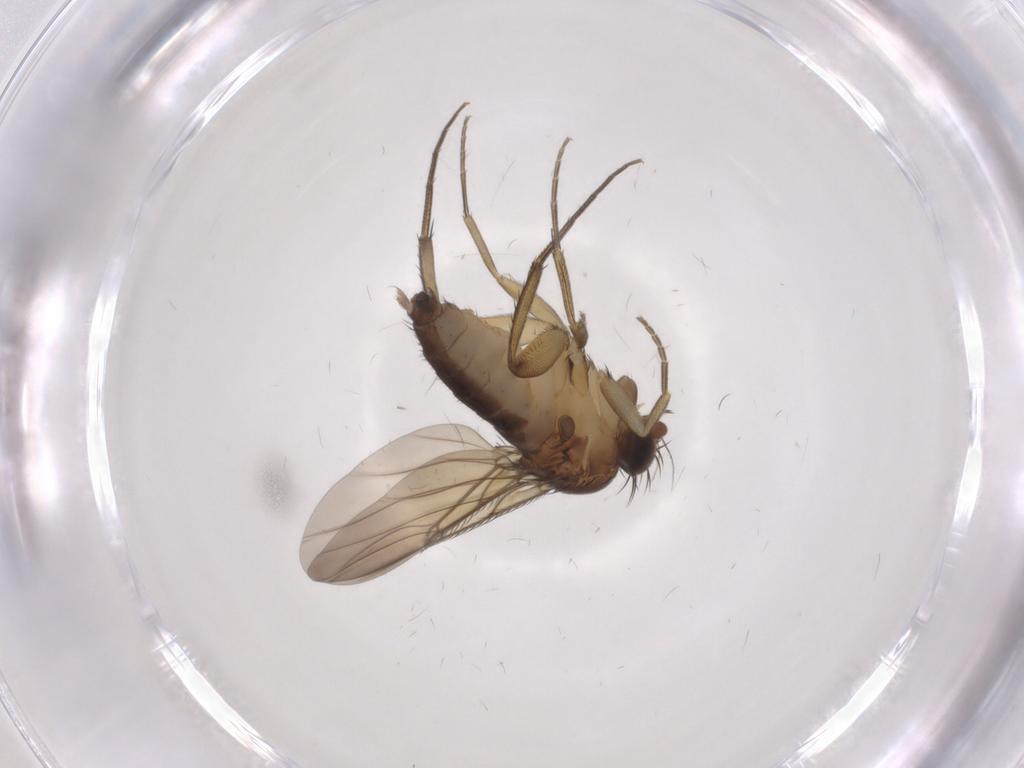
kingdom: Animalia
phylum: Arthropoda
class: Insecta
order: Diptera
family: Phoridae
